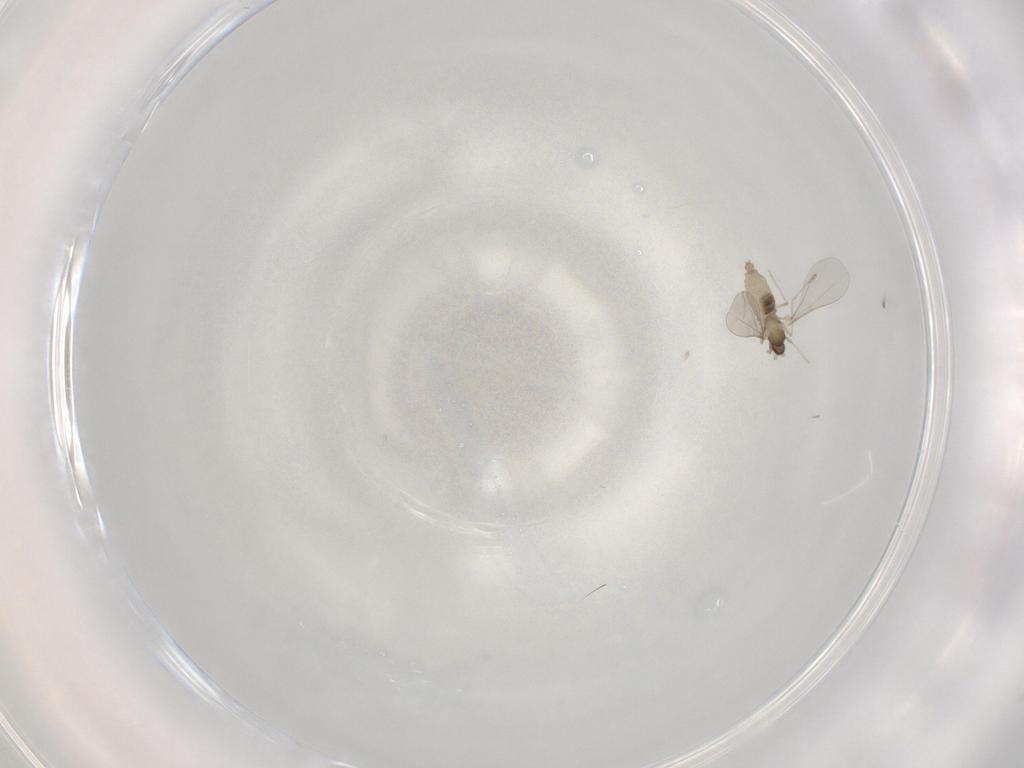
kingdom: Animalia
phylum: Arthropoda
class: Insecta
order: Diptera
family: Cecidomyiidae
